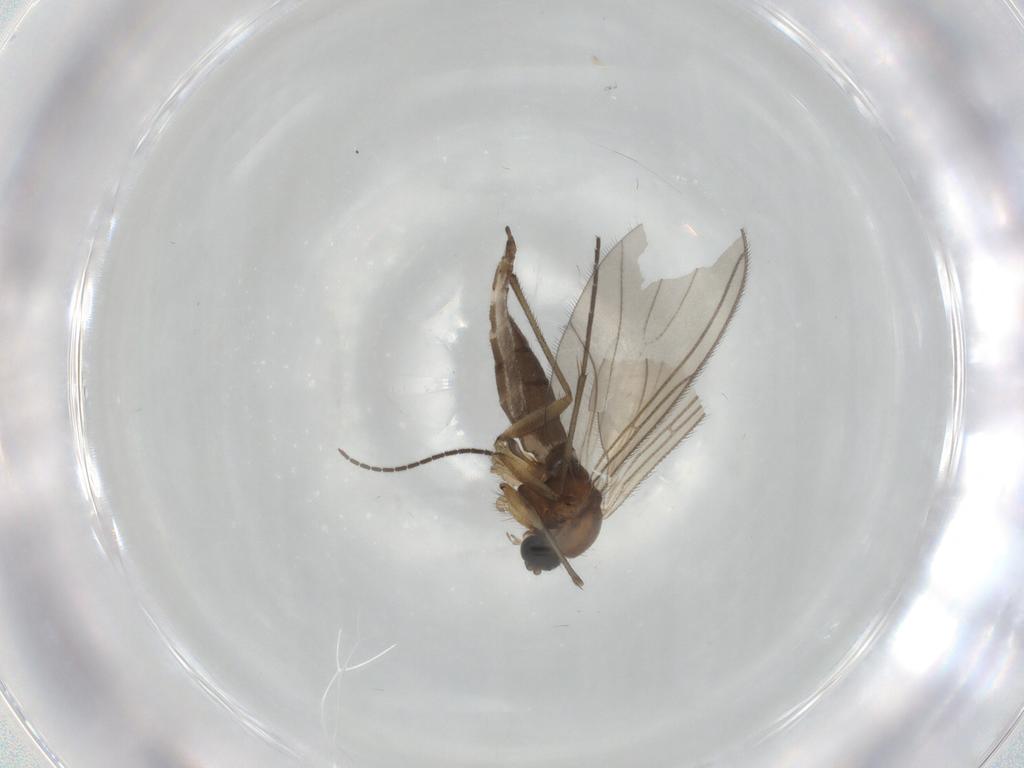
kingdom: Animalia
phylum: Arthropoda
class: Insecta
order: Diptera
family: Sciaridae
